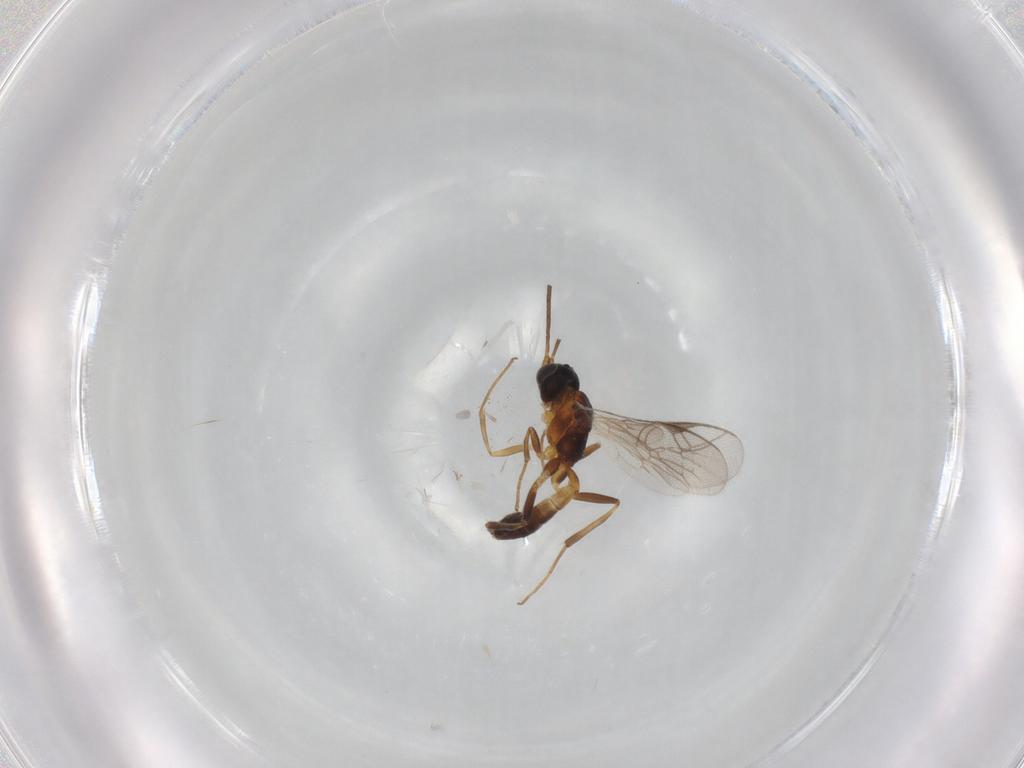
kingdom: Animalia
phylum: Arthropoda
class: Insecta
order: Hymenoptera
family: Ichneumonidae
